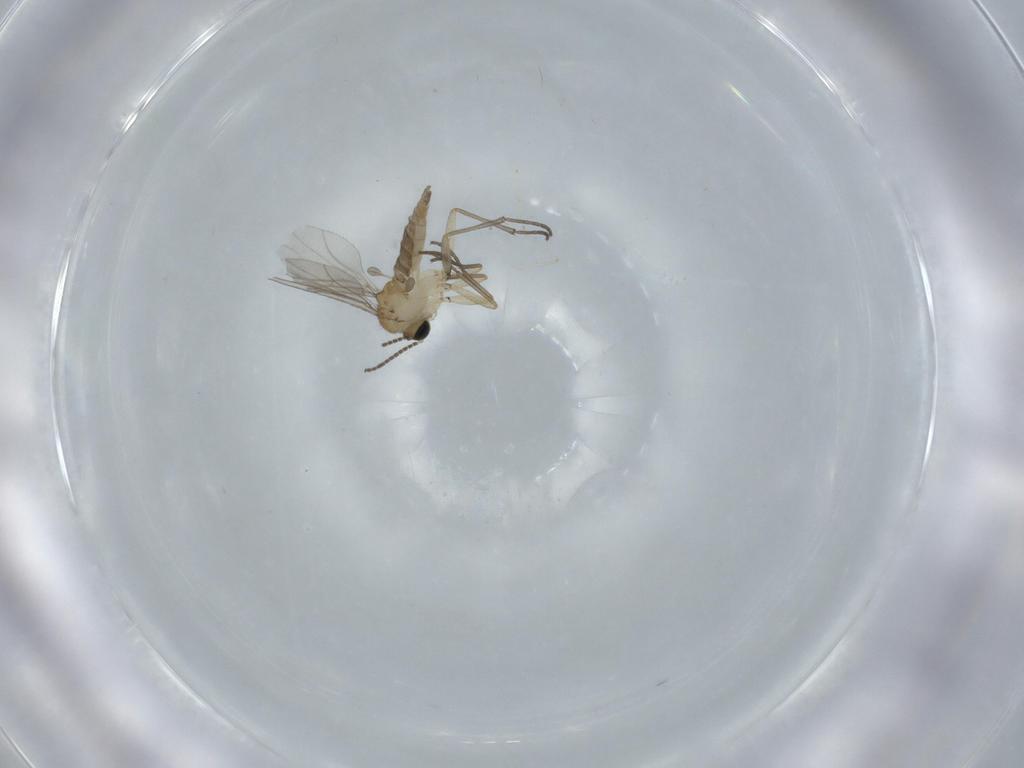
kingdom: Animalia
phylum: Arthropoda
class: Insecta
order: Diptera
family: Sciaridae
